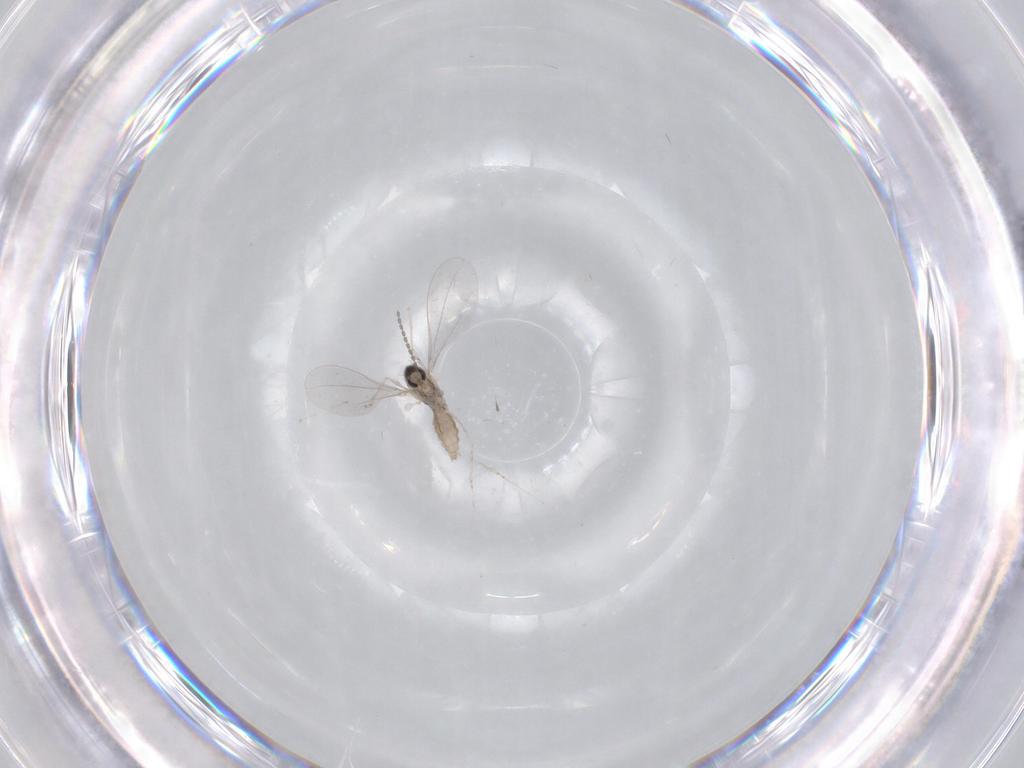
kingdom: Animalia
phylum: Arthropoda
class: Insecta
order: Diptera
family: Cecidomyiidae
